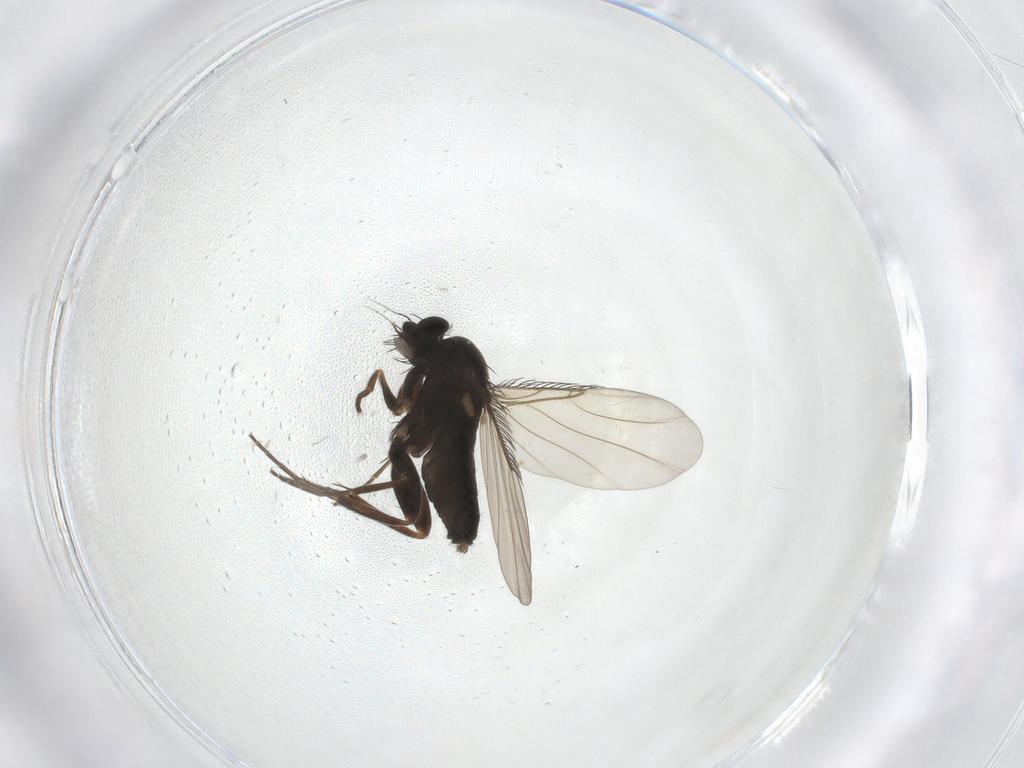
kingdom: Animalia
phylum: Arthropoda
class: Insecta
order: Diptera
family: Phoridae
